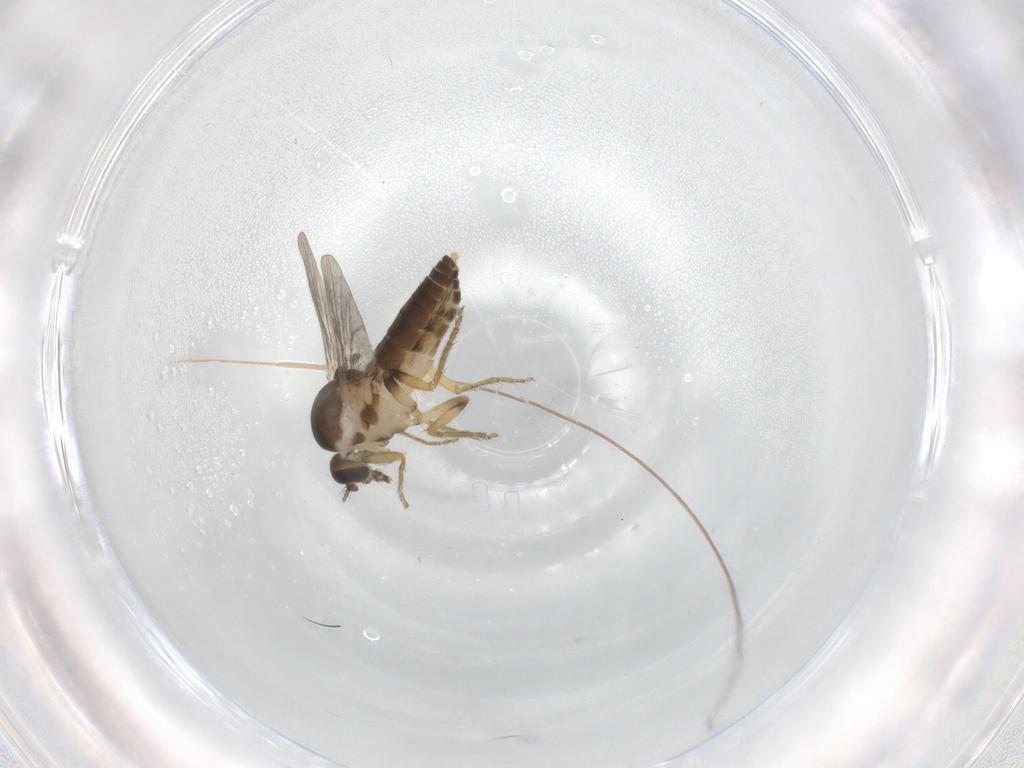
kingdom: Animalia
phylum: Arthropoda
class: Insecta
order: Diptera
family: Ceratopogonidae
